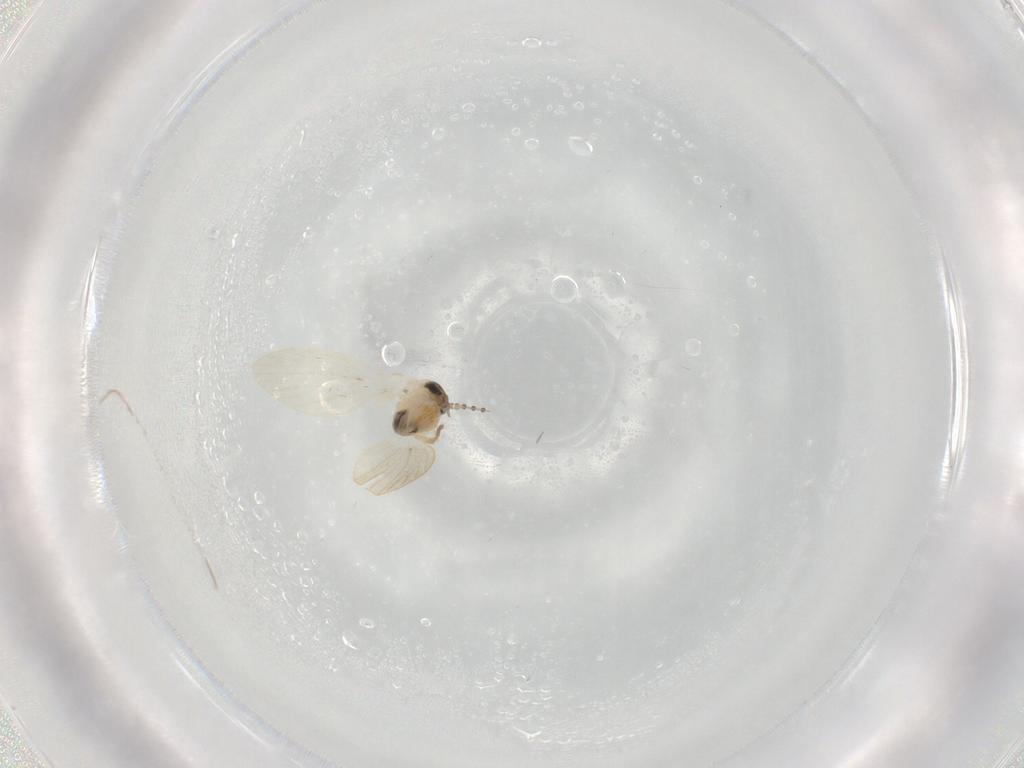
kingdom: Animalia
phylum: Arthropoda
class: Insecta
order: Diptera
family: Psychodidae
